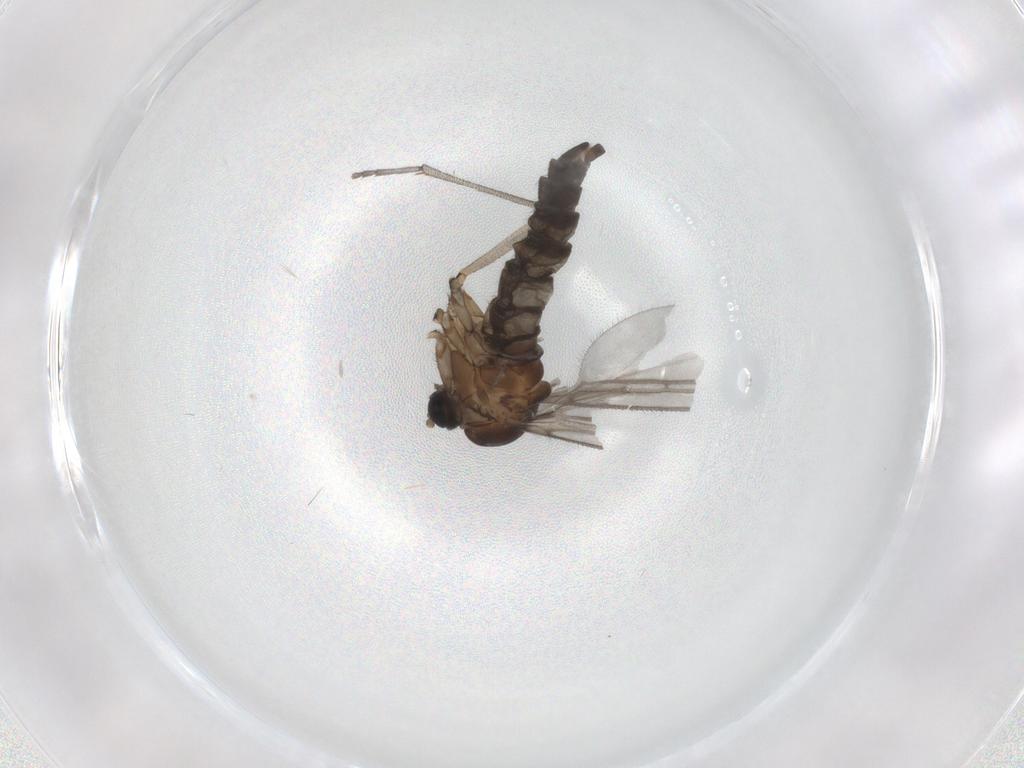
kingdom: Animalia
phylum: Arthropoda
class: Insecta
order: Diptera
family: Sciaridae
